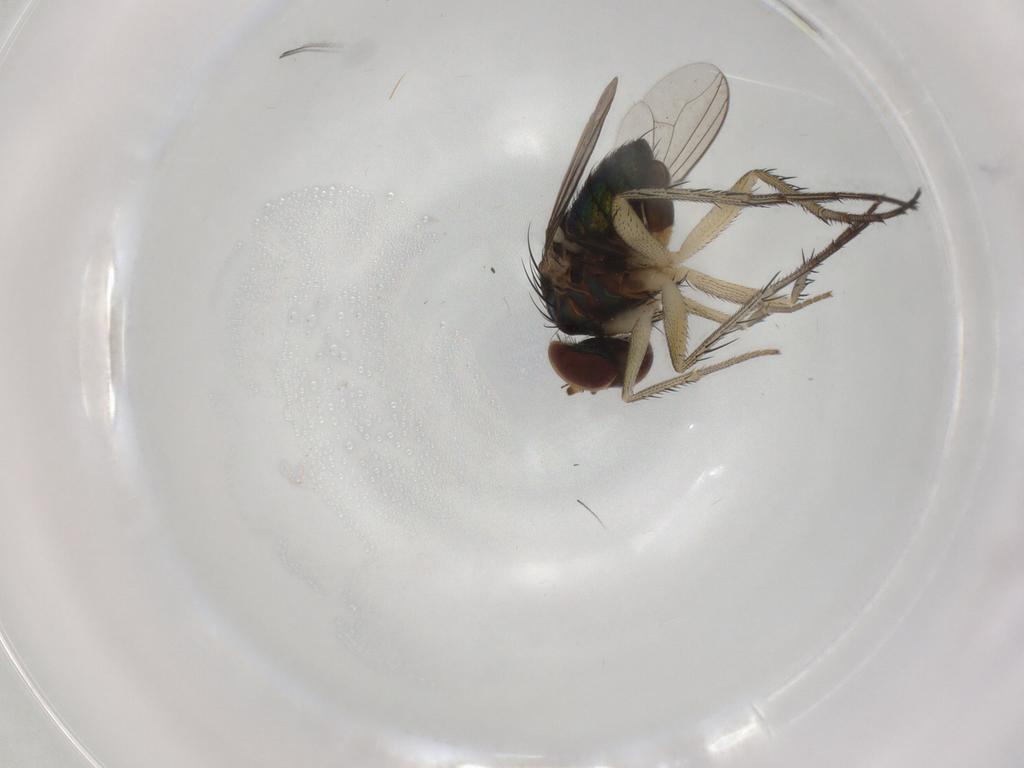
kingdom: Animalia
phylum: Arthropoda
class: Insecta
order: Diptera
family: Dolichopodidae
